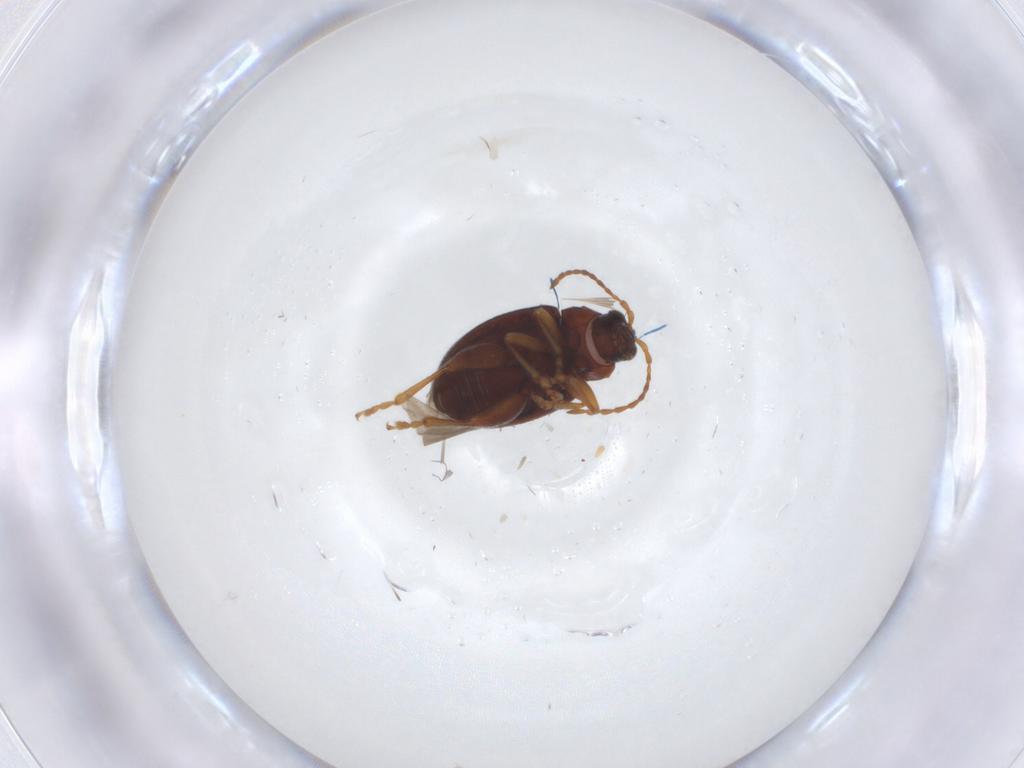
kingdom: Animalia
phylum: Arthropoda
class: Insecta
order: Coleoptera
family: Chrysomelidae
